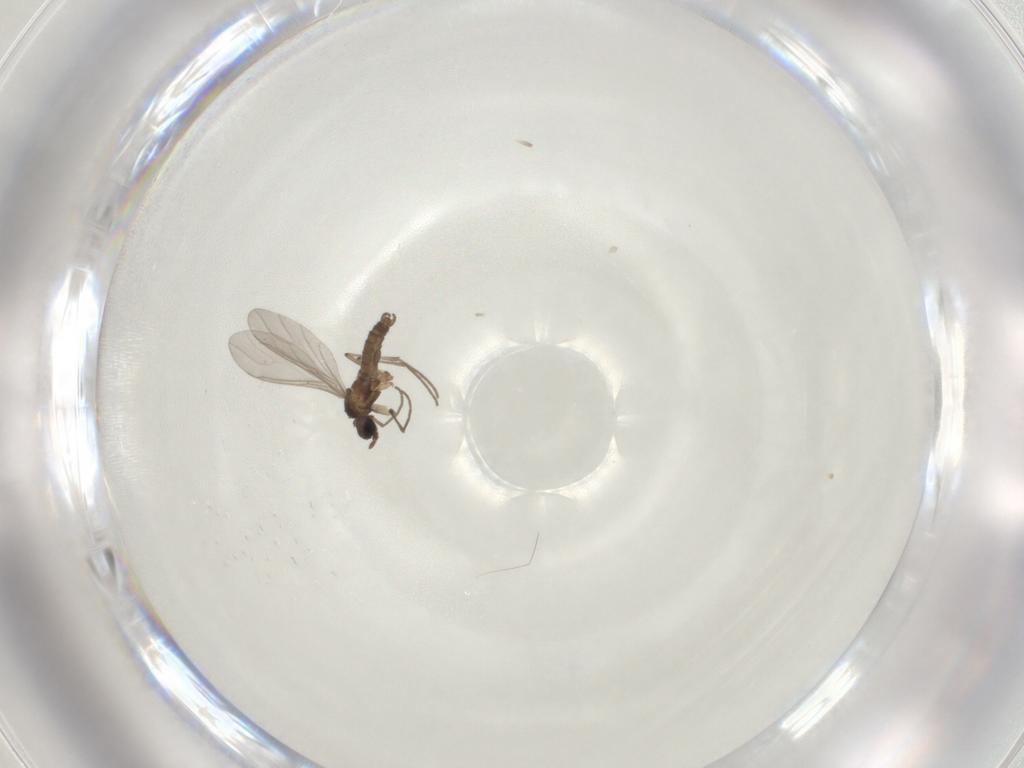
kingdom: Animalia
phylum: Arthropoda
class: Insecta
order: Diptera
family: Sciaridae
